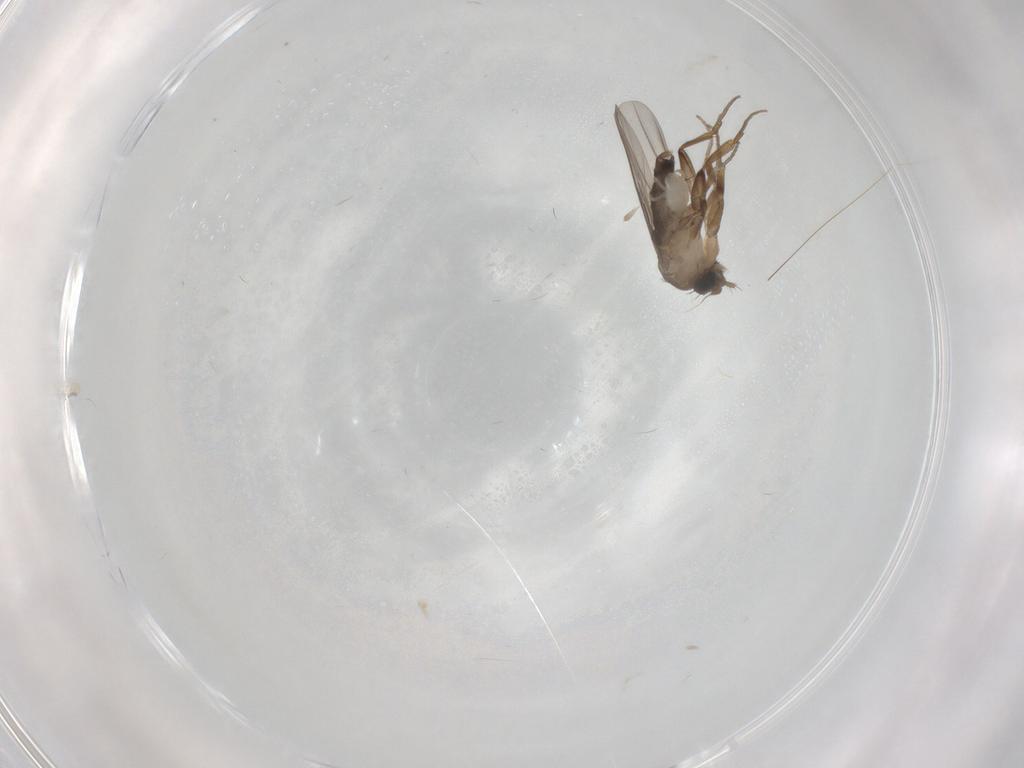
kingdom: Animalia
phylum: Arthropoda
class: Insecta
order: Diptera
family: Phoridae
